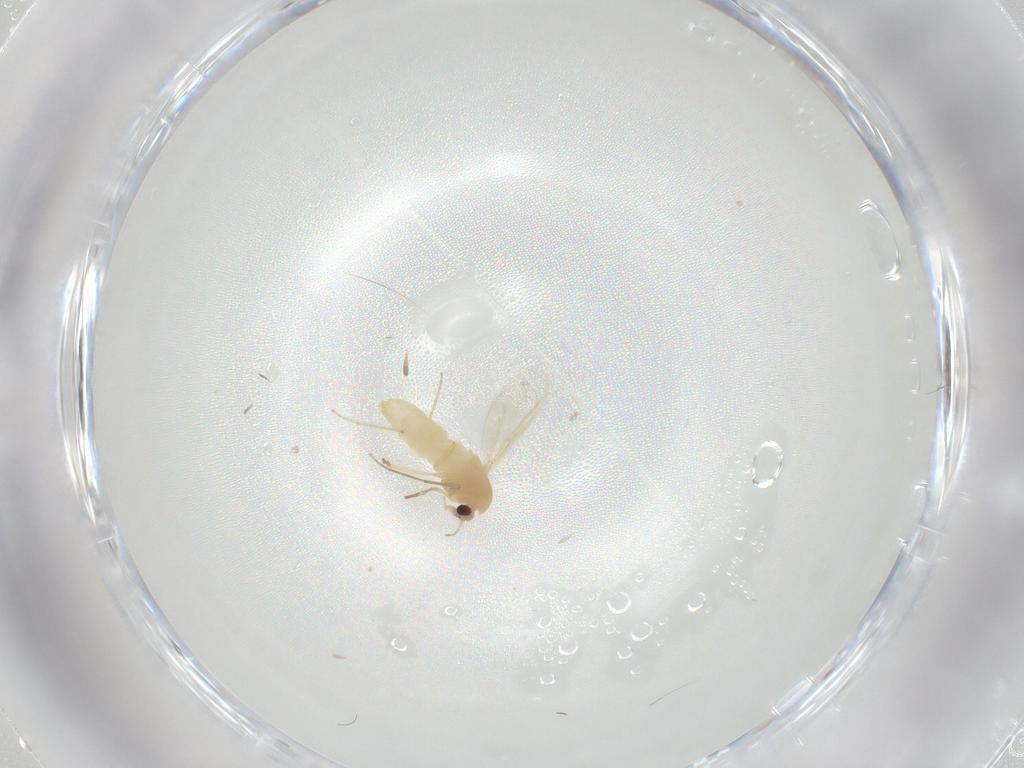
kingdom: Animalia
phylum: Arthropoda
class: Insecta
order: Diptera
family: Chironomidae
